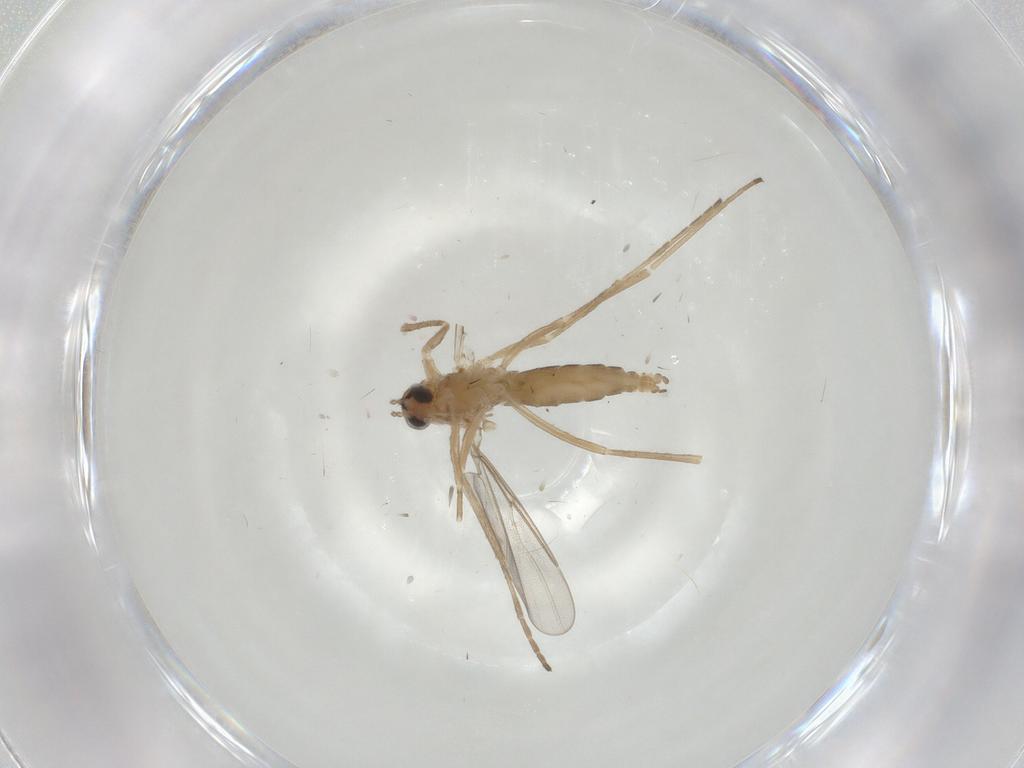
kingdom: Animalia
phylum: Arthropoda
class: Insecta
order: Diptera
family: Cecidomyiidae
